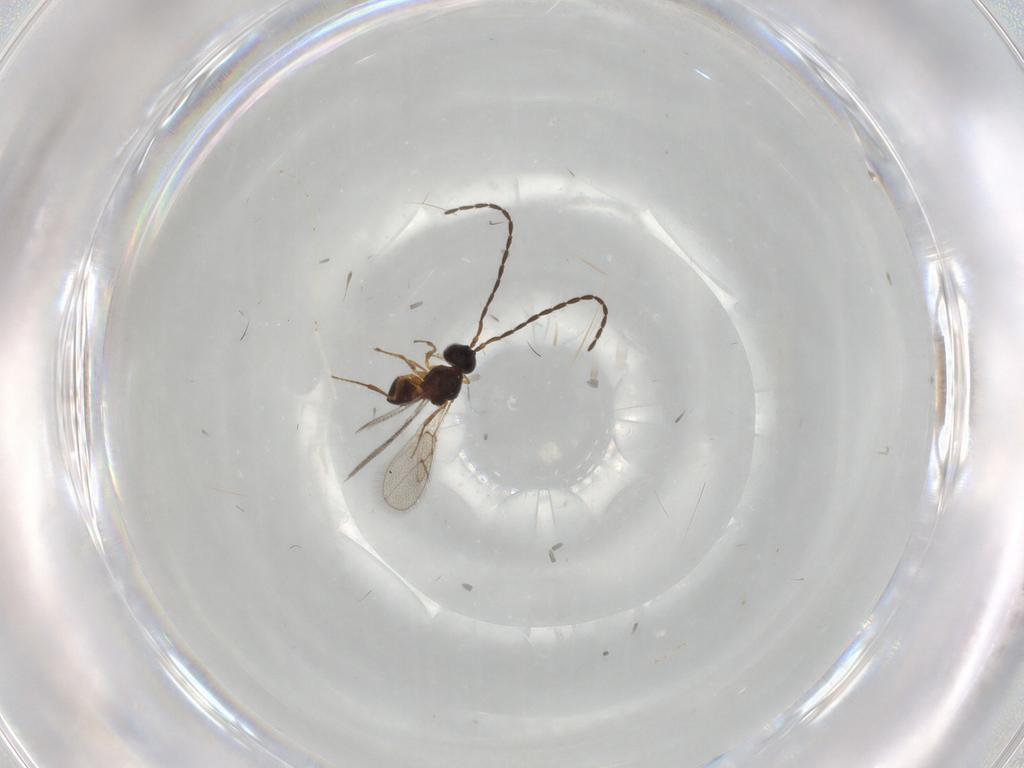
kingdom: Animalia
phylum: Arthropoda
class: Insecta
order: Hymenoptera
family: Figitidae
